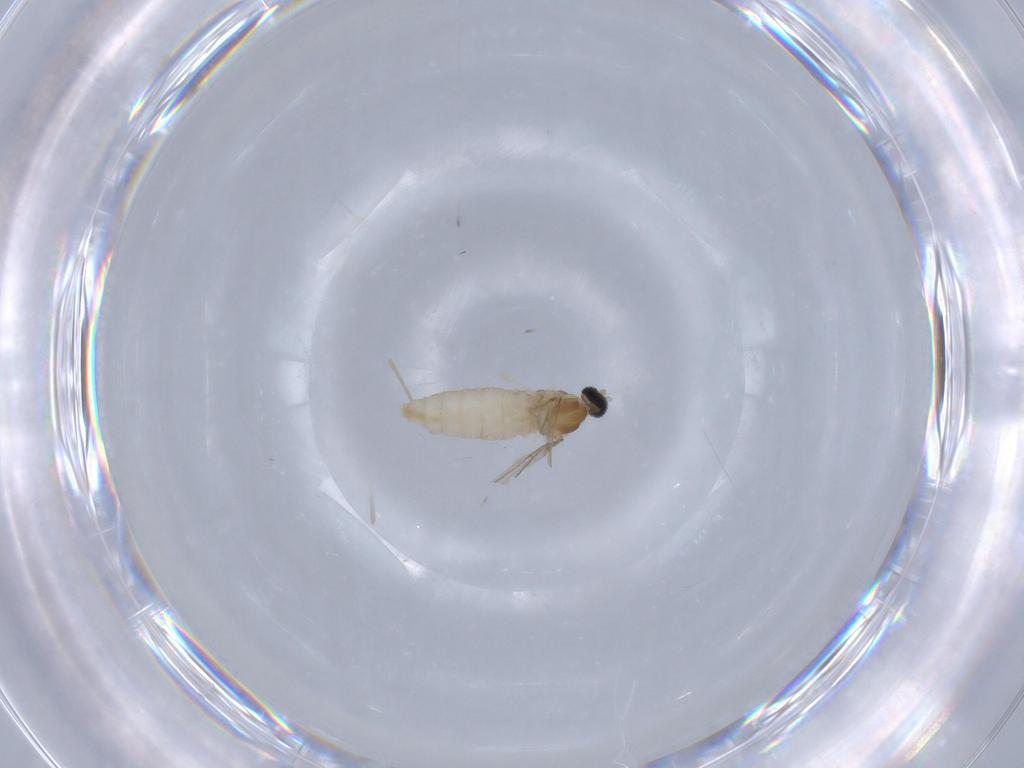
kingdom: Animalia
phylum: Arthropoda
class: Insecta
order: Diptera
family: Cecidomyiidae
